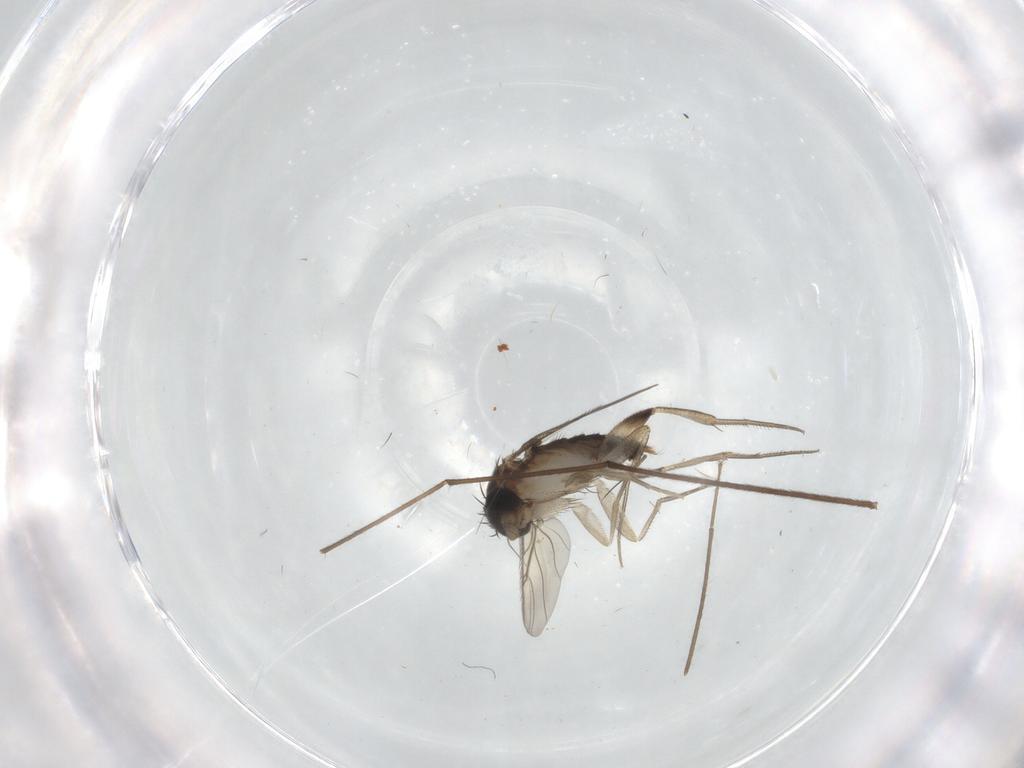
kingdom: Animalia
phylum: Arthropoda
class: Insecta
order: Diptera
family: Phoridae
